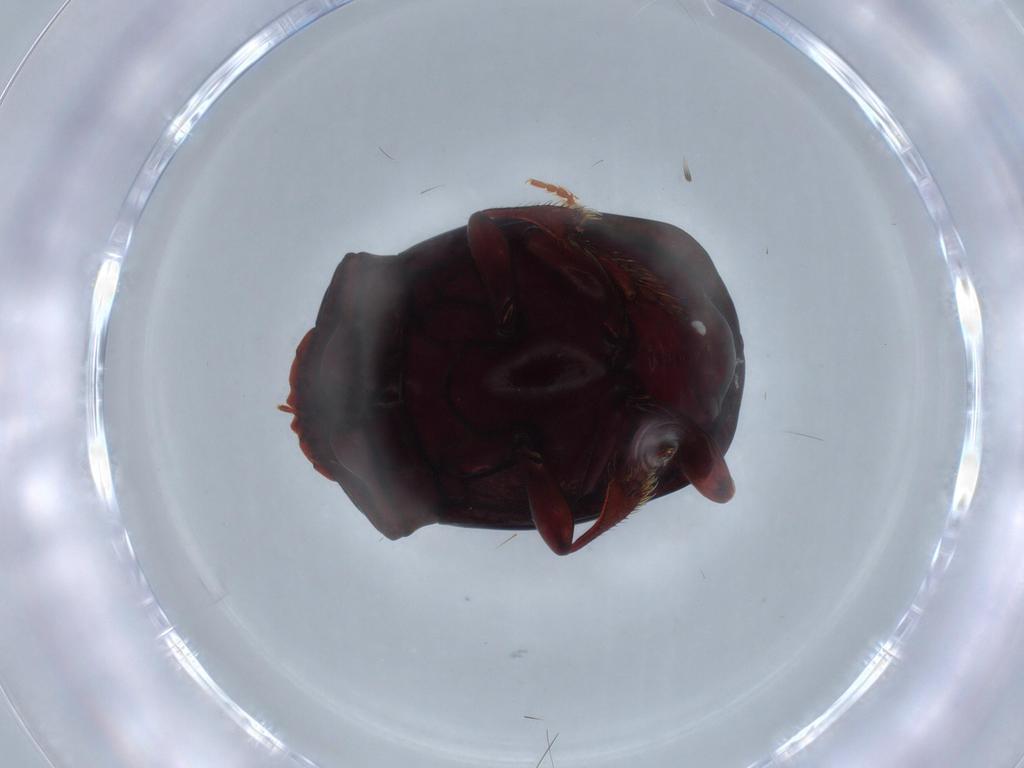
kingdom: Animalia
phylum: Arthropoda
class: Insecta
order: Coleoptera
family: Scarabaeidae
